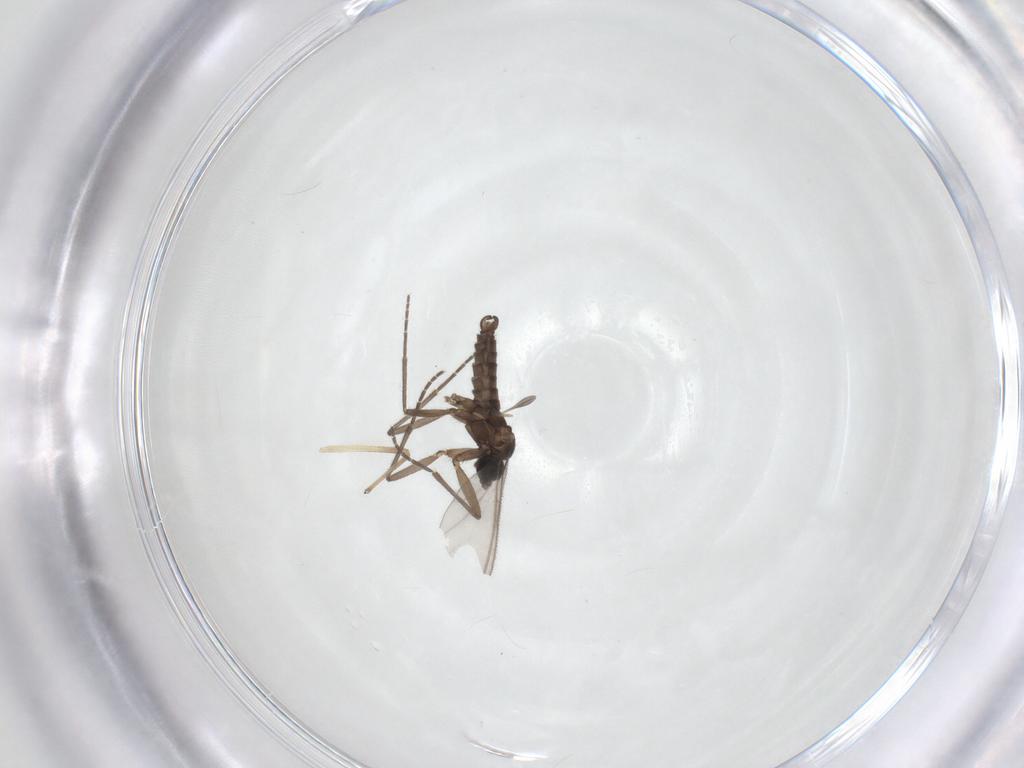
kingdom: Animalia
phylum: Arthropoda
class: Insecta
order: Diptera
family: Sciaridae
